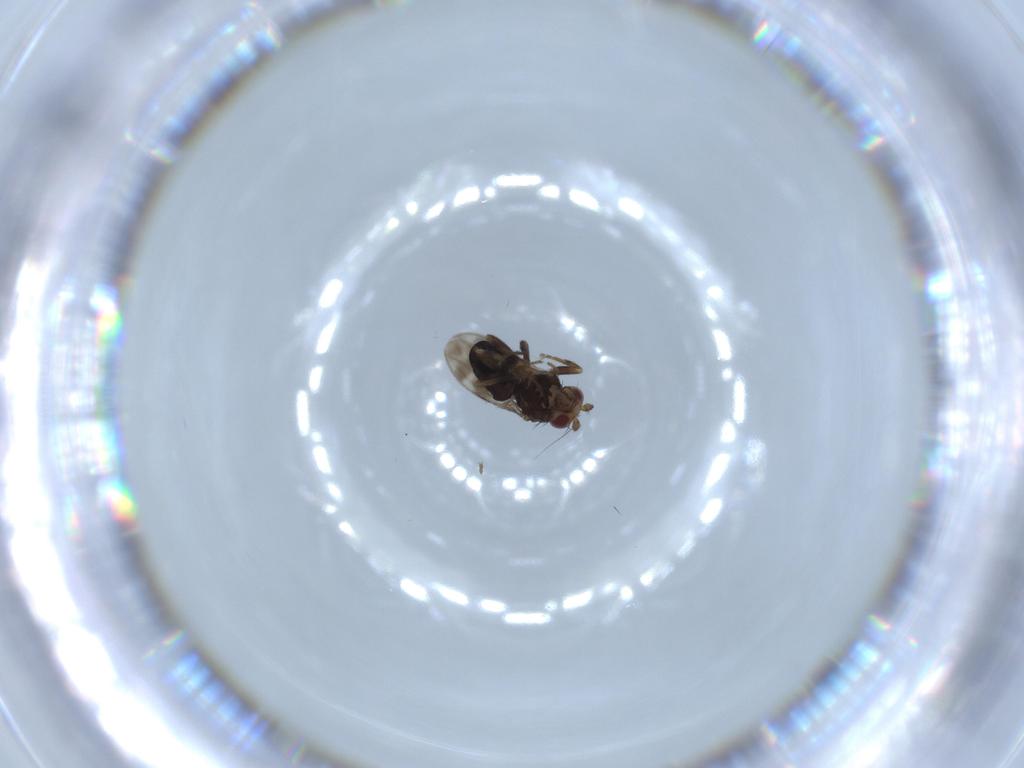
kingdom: Animalia
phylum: Arthropoda
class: Insecta
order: Diptera
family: Sphaeroceridae
